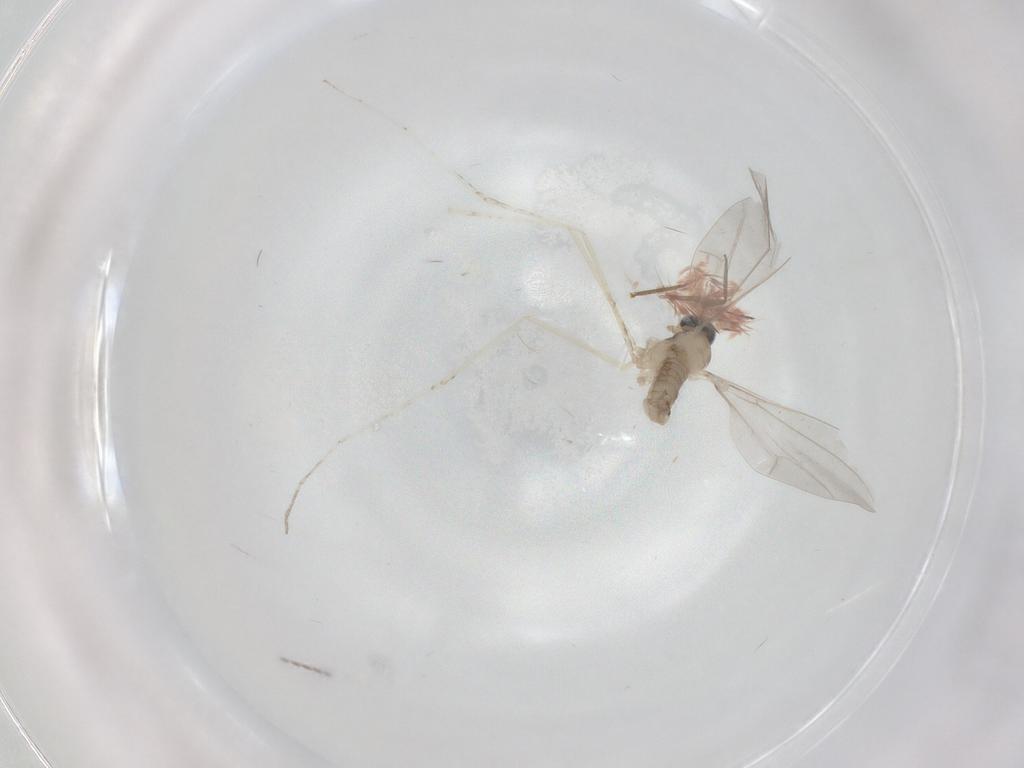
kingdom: Animalia
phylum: Arthropoda
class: Insecta
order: Diptera
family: Cecidomyiidae
